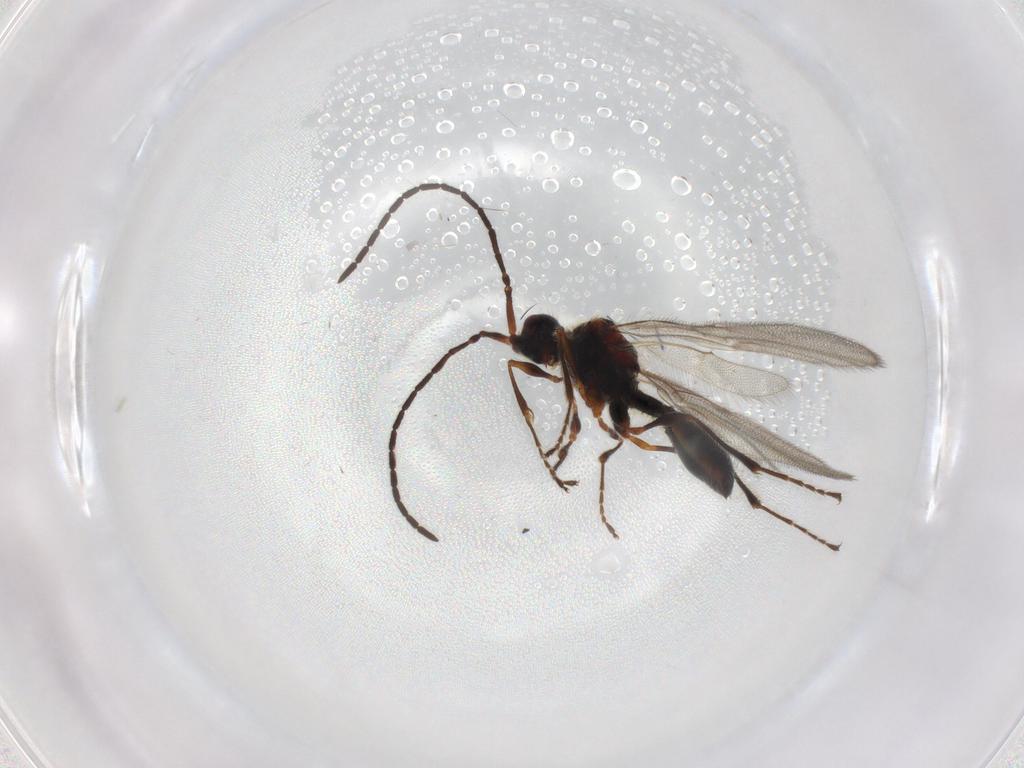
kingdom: Animalia
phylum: Arthropoda
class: Insecta
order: Hymenoptera
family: Diapriidae
